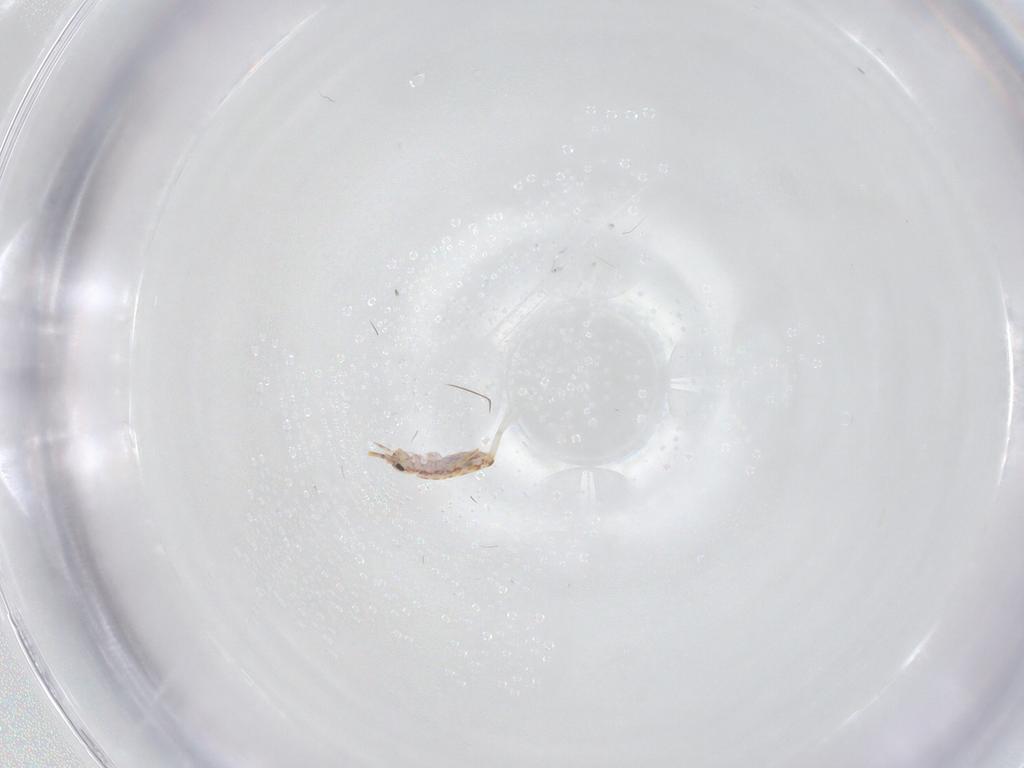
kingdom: Animalia
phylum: Arthropoda
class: Collembola
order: Entomobryomorpha
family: Entomobryidae
